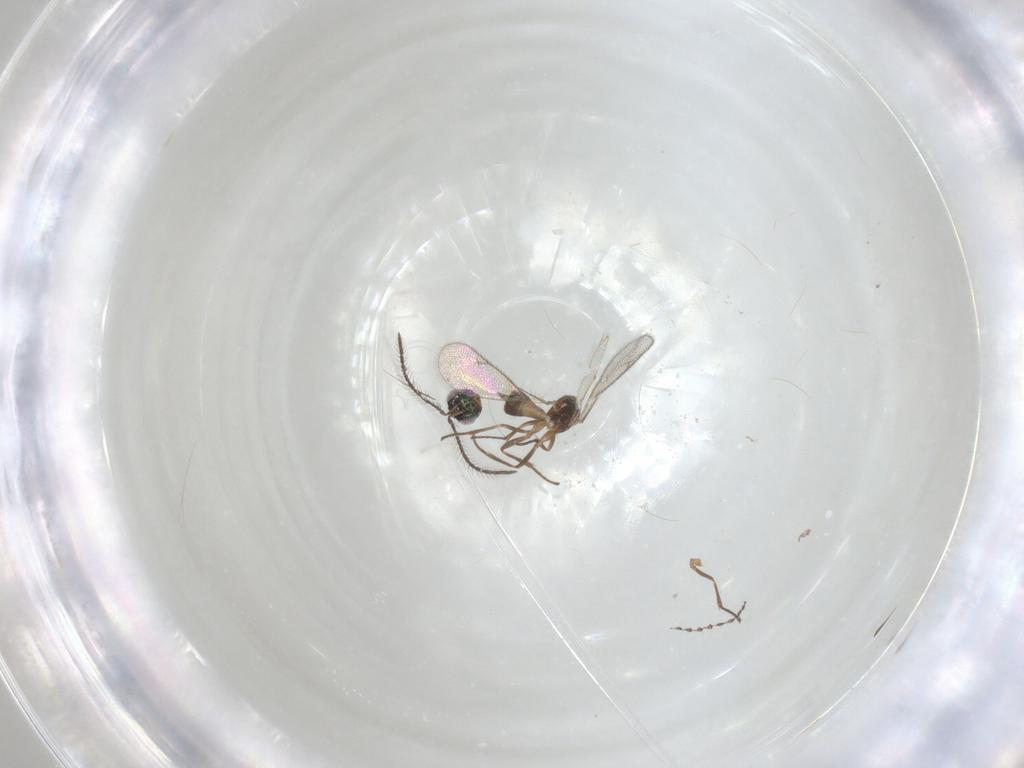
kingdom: Animalia
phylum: Arthropoda
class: Insecta
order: Hymenoptera
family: Eupelmidae
